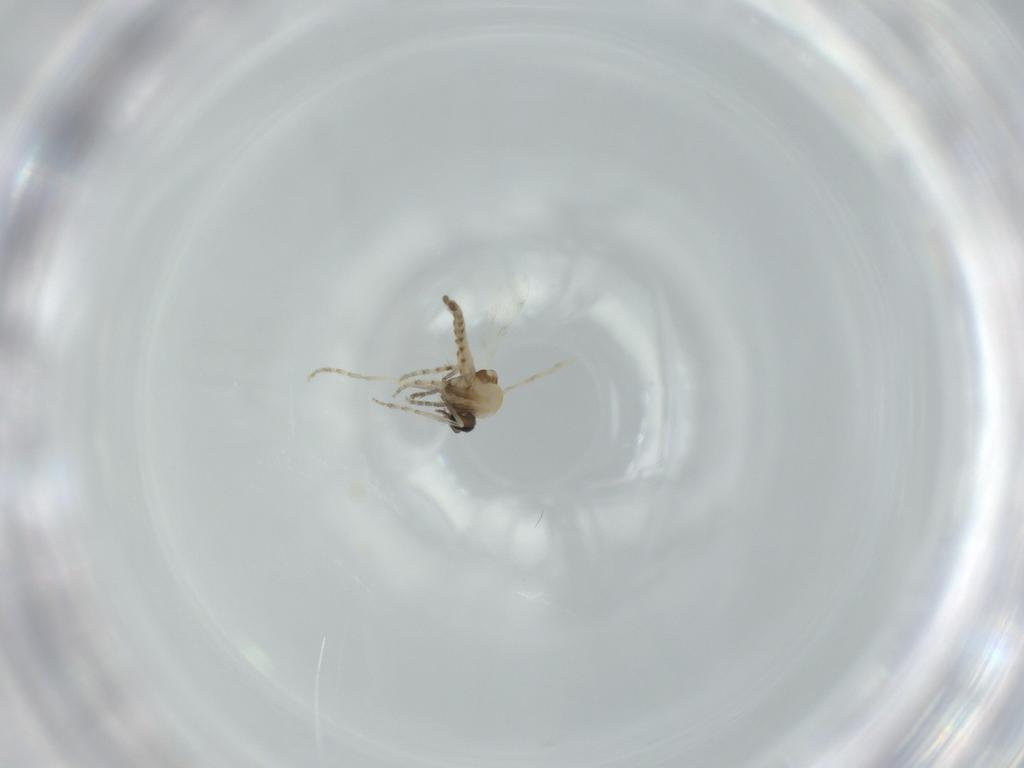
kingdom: Animalia
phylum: Arthropoda
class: Insecta
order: Diptera
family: Ceratopogonidae
